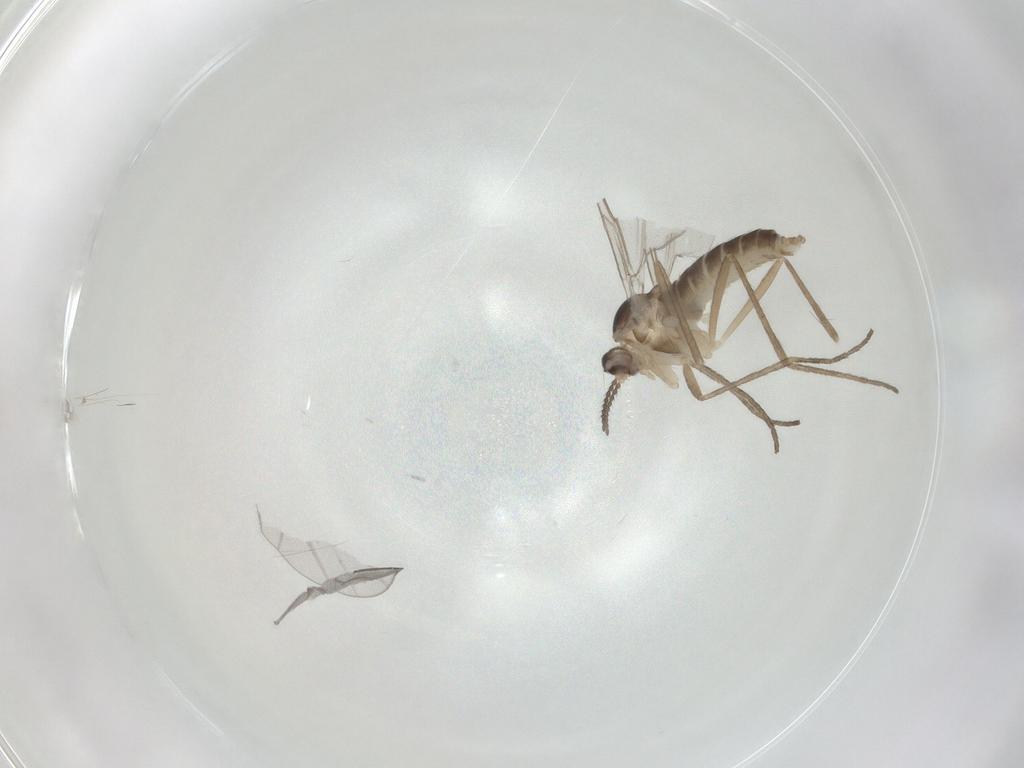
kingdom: Animalia
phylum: Arthropoda
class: Insecta
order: Diptera
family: Cecidomyiidae
